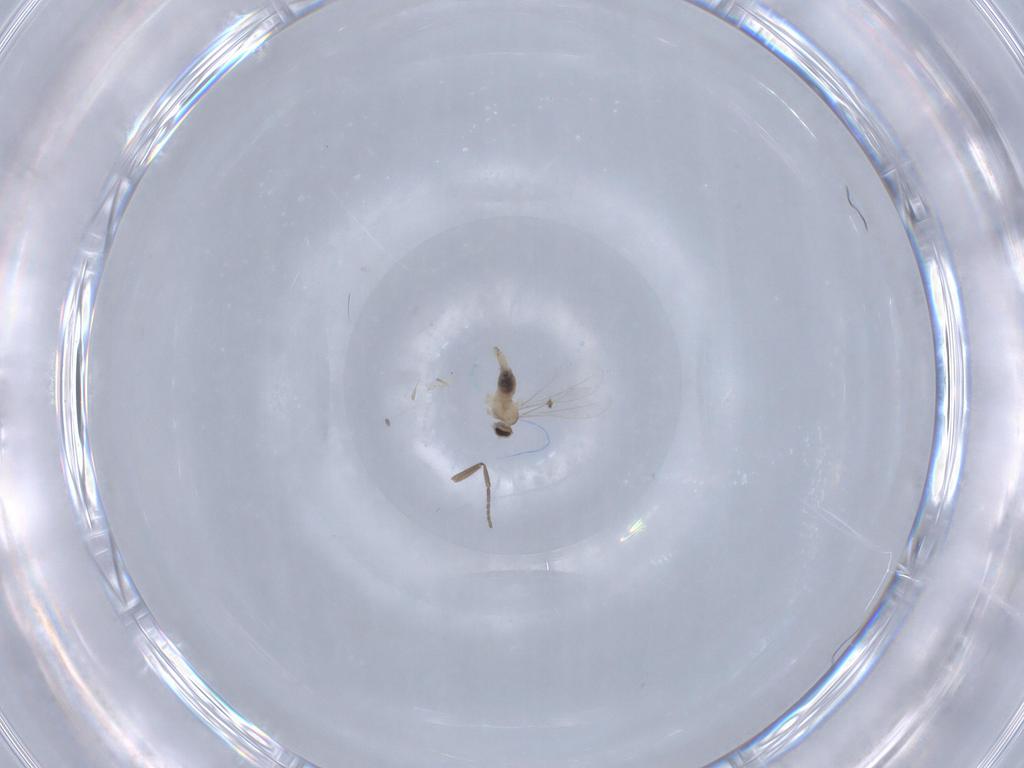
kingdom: Animalia
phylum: Arthropoda
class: Insecta
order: Diptera
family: Cecidomyiidae
